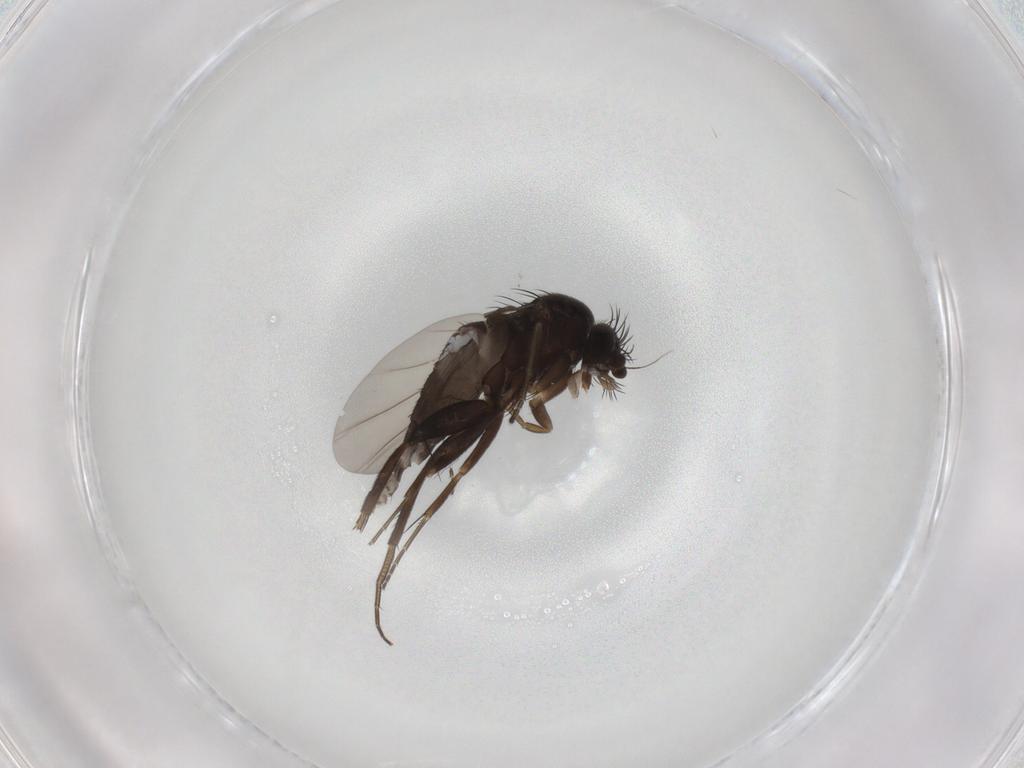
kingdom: Animalia
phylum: Arthropoda
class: Insecta
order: Diptera
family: Phoridae
